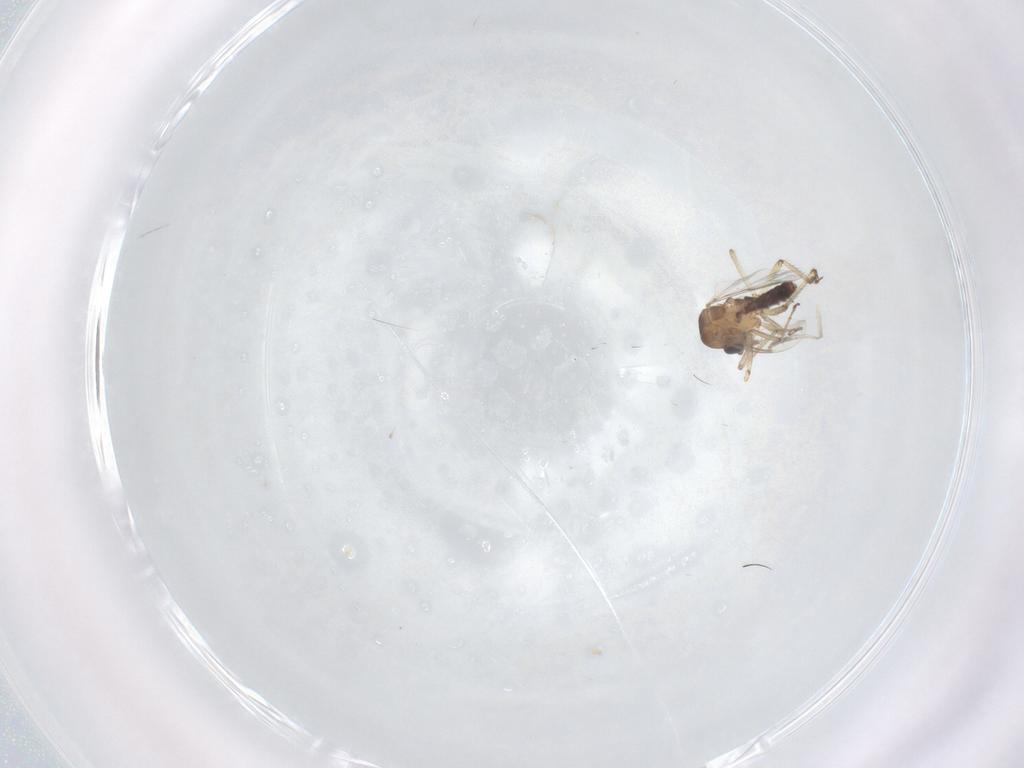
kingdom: Animalia
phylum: Arthropoda
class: Insecta
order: Diptera
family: Ceratopogonidae
